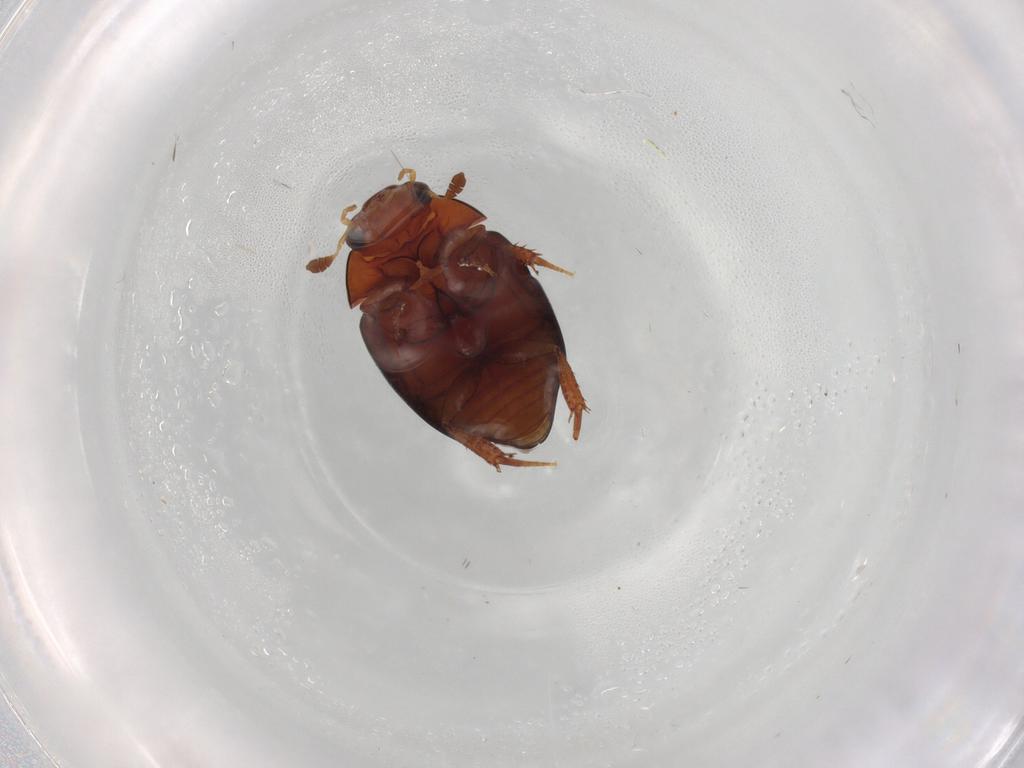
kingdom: Animalia
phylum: Arthropoda
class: Insecta
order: Coleoptera
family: Hydrophilidae
